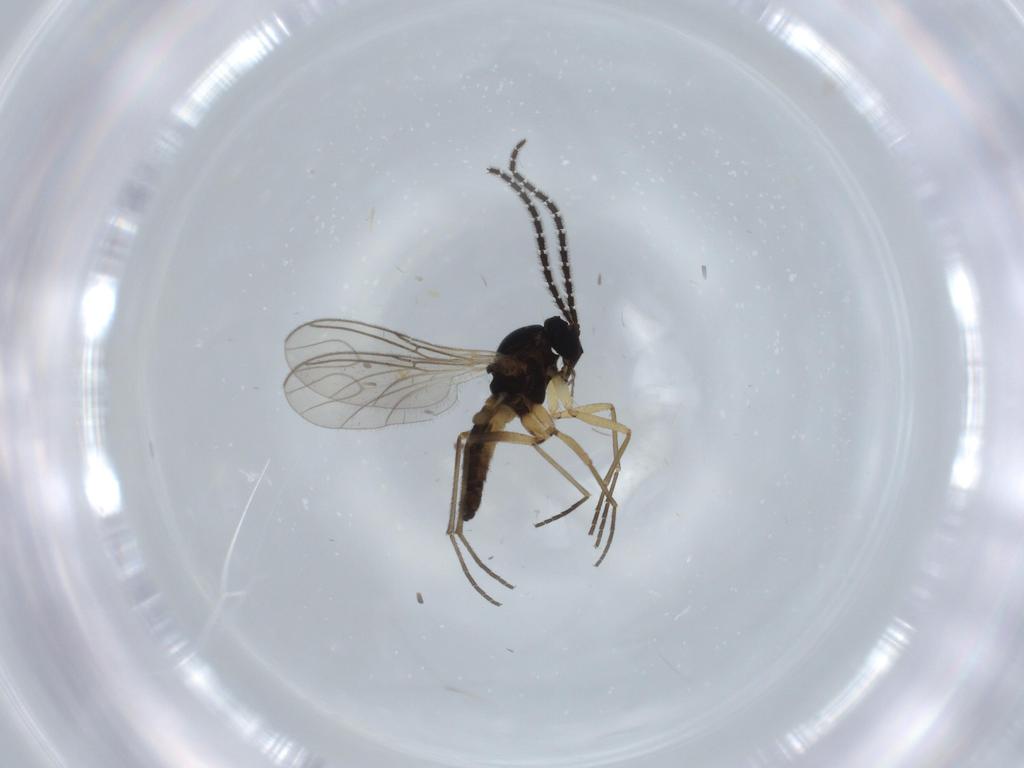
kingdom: Animalia
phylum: Arthropoda
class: Insecta
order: Diptera
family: Sciaridae
